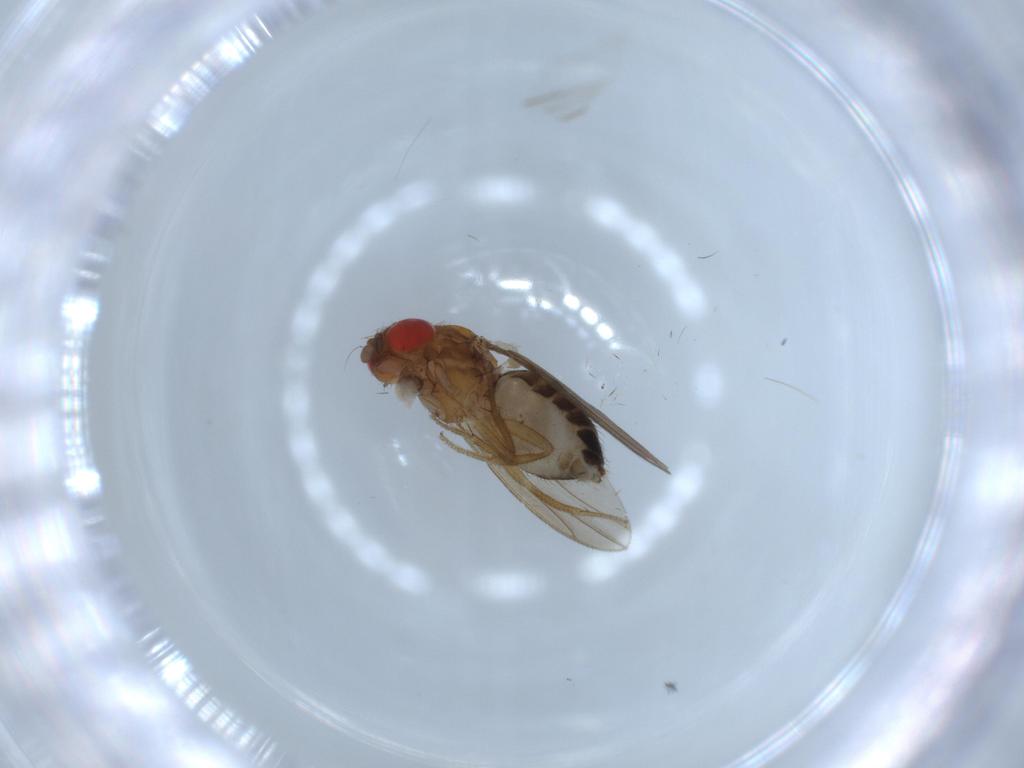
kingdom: Animalia
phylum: Arthropoda
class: Insecta
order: Diptera
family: Drosophilidae
